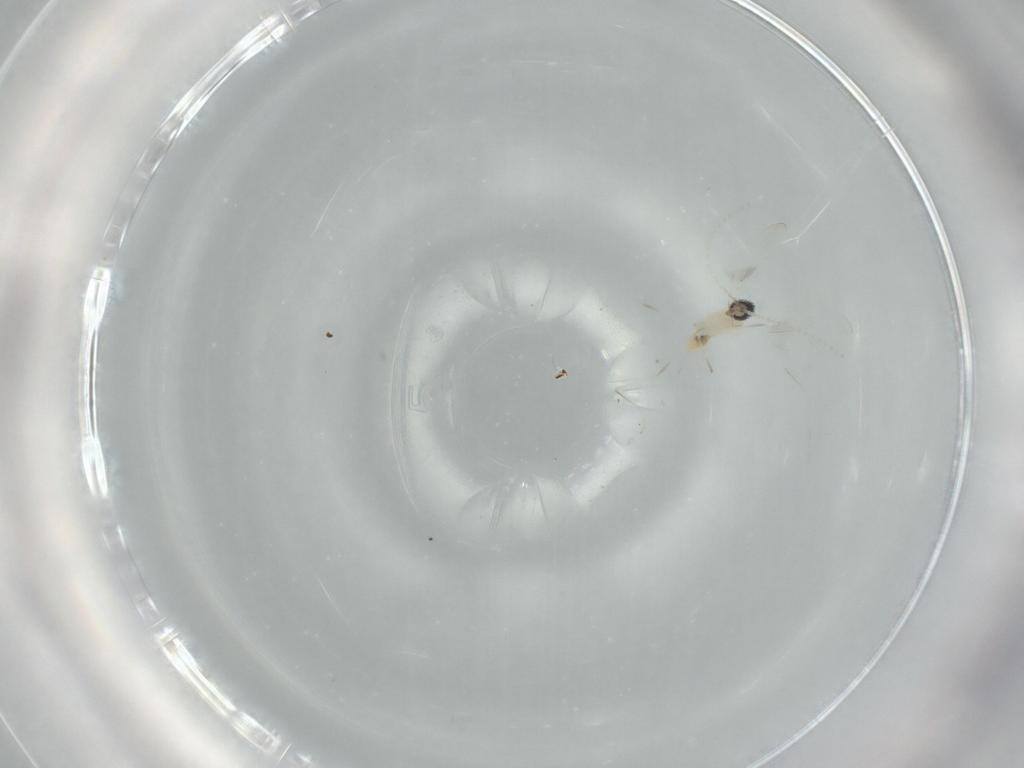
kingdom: Animalia
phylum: Arthropoda
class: Insecta
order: Diptera
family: Cecidomyiidae
